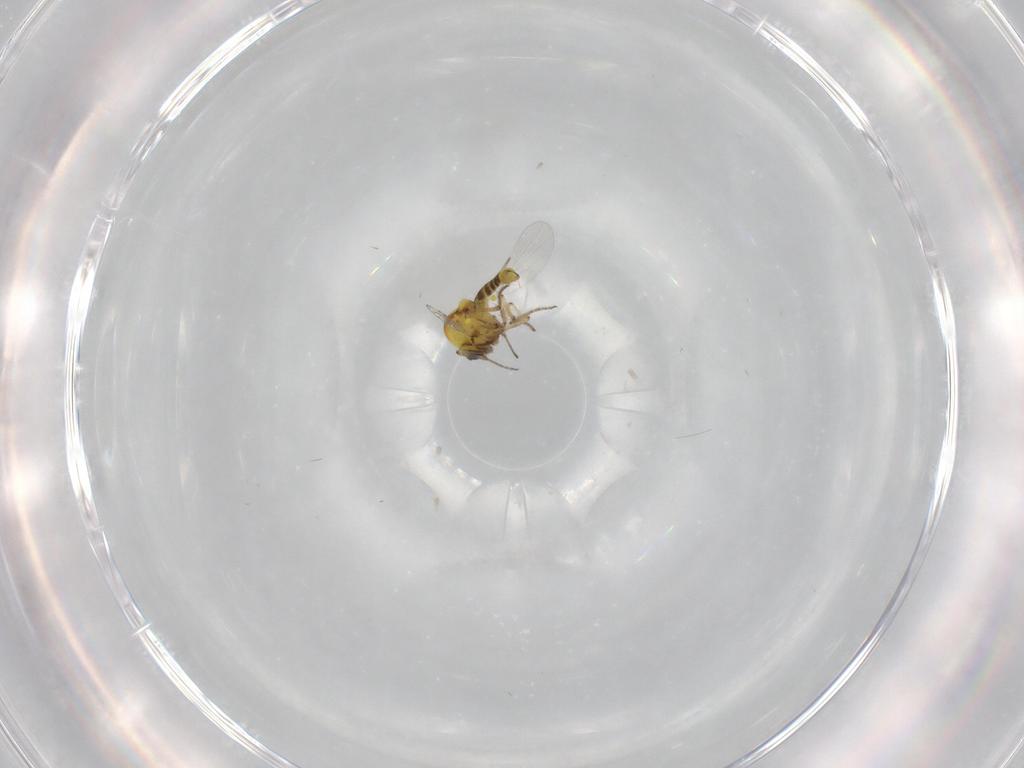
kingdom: Animalia
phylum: Arthropoda
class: Insecta
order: Diptera
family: Ceratopogonidae
